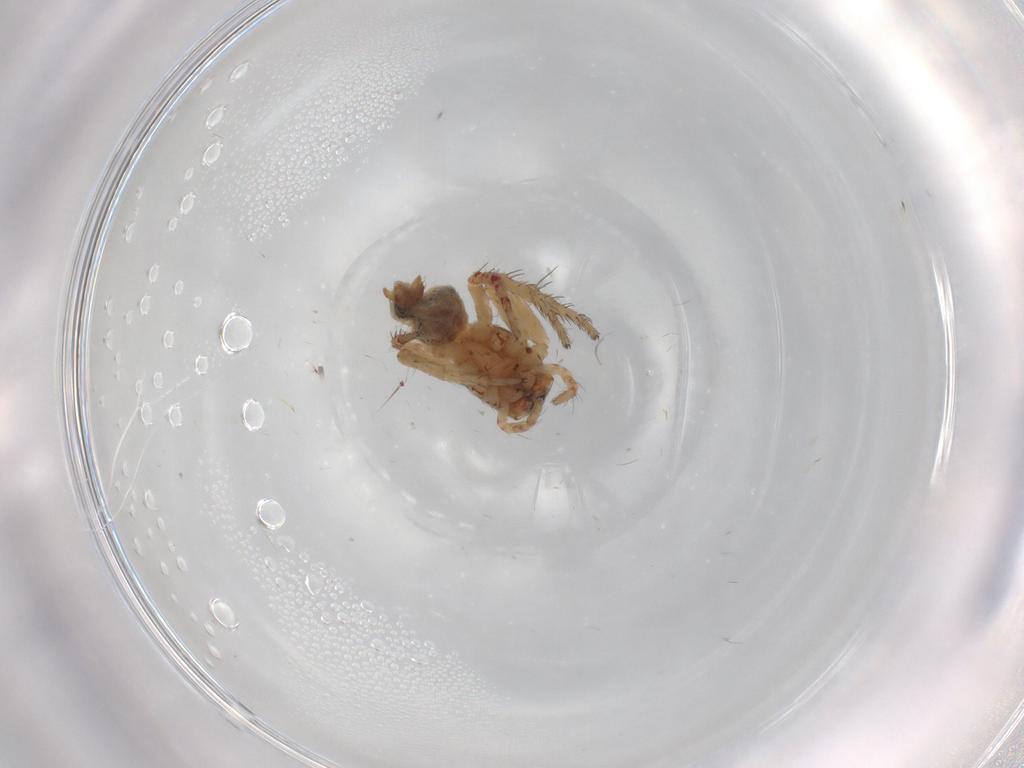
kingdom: Animalia
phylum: Arthropoda
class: Arachnida
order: Araneae
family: Oxyopidae
